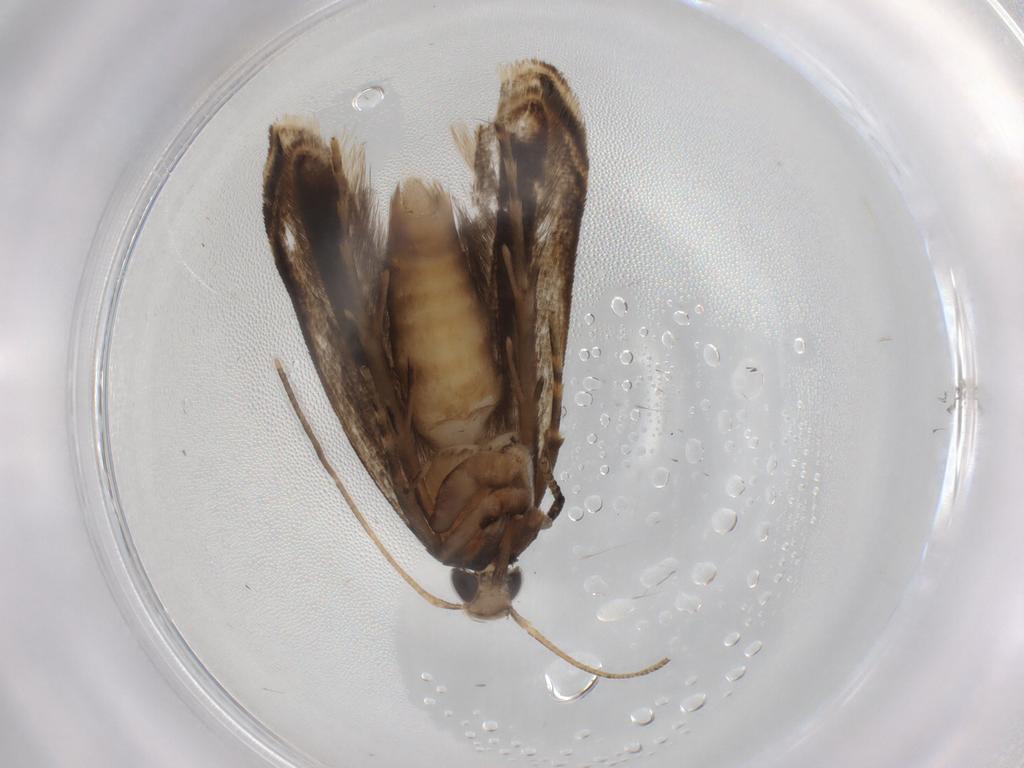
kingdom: Animalia
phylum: Arthropoda
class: Insecta
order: Lepidoptera
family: Gelechiidae
